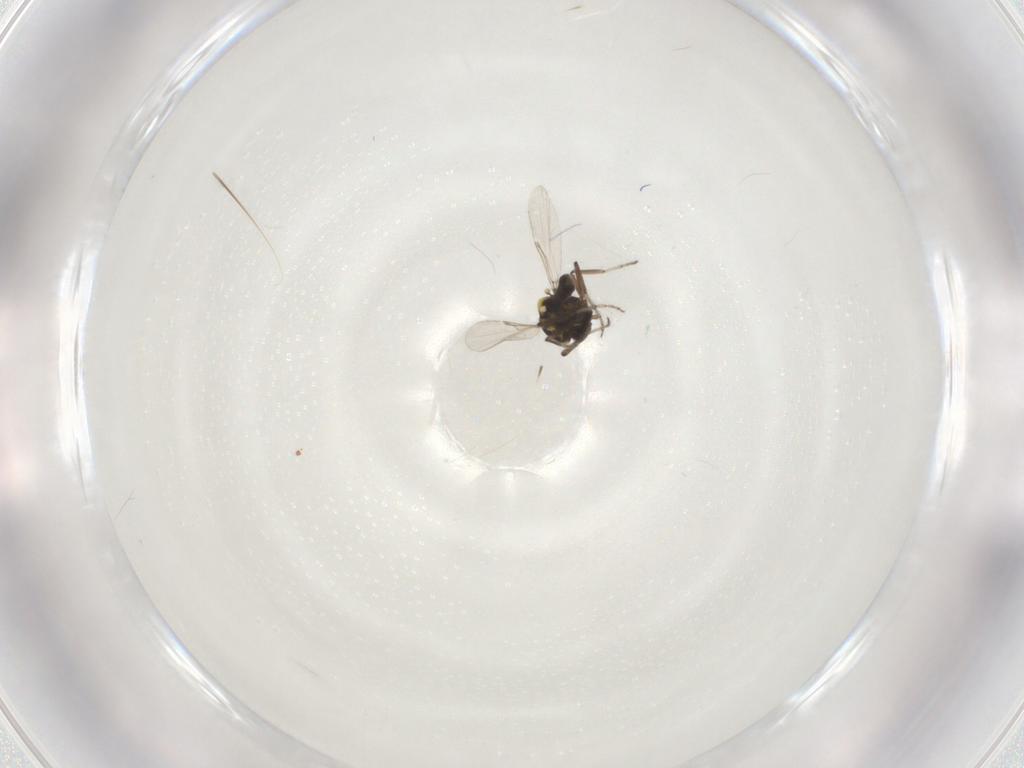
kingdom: Animalia
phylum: Arthropoda
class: Insecta
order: Diptera
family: Ceratopogonidae
